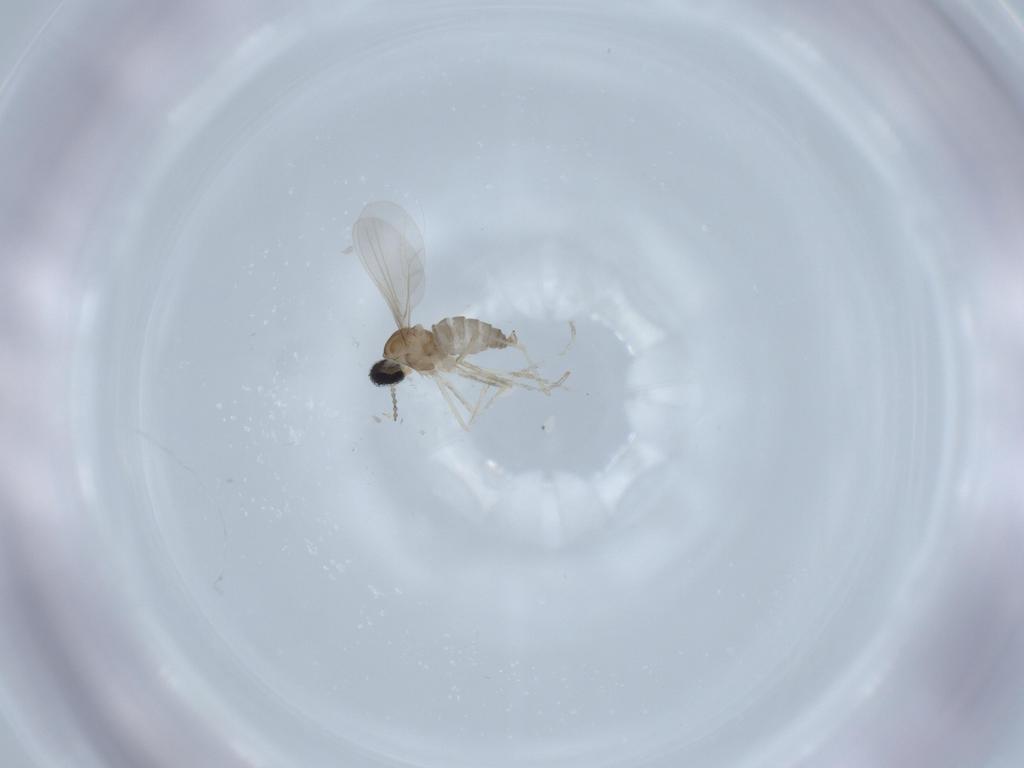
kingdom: Animalia
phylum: Arthropoda
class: Insecta
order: Diptera
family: Chironomidae
